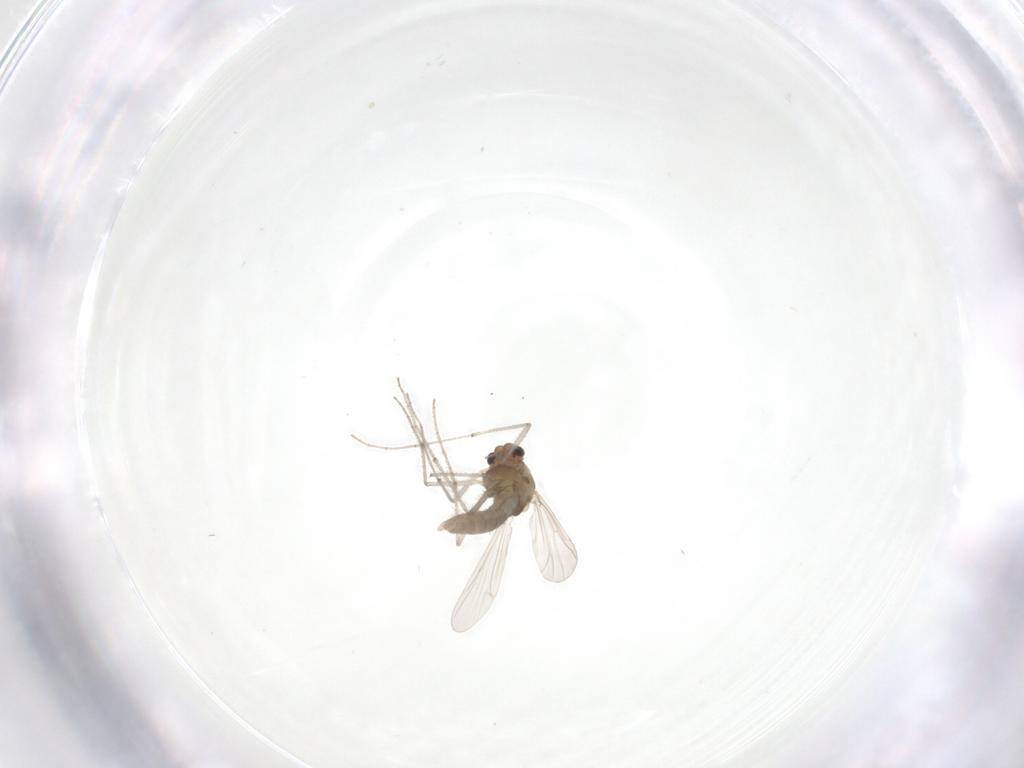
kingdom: Animalia
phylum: Arthropoda
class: Insecta
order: Diptera
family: Chironomidae
